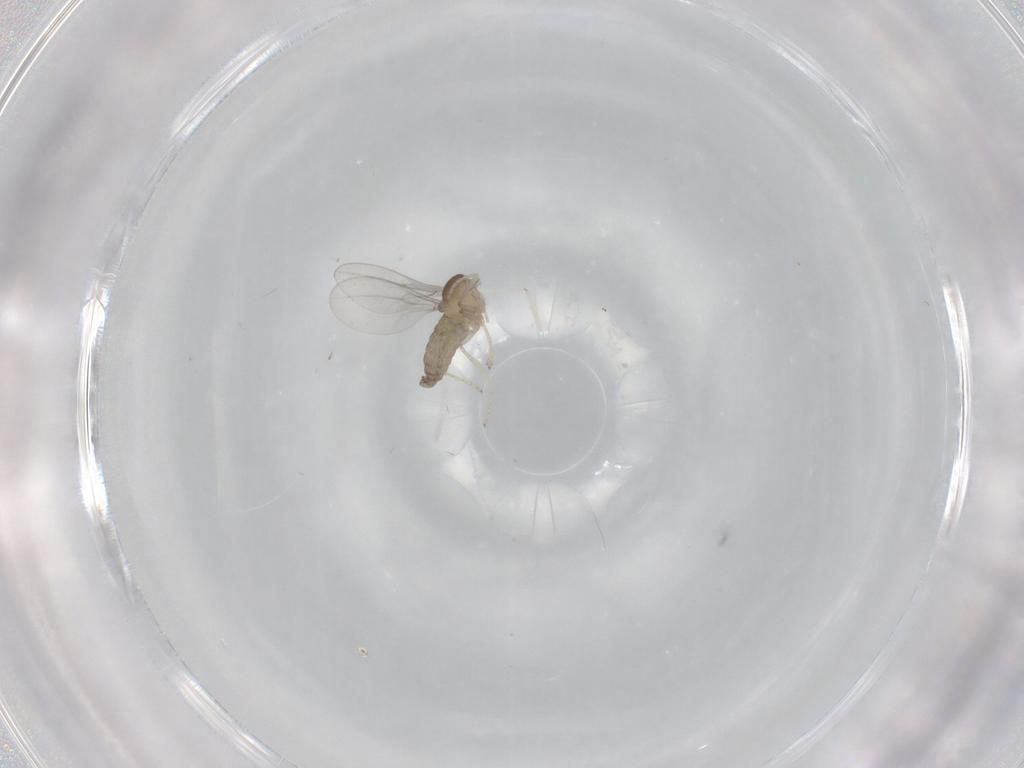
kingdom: Animalia
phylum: Arthropoda
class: Insecta
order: Diptera
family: Cecidomyiidae
